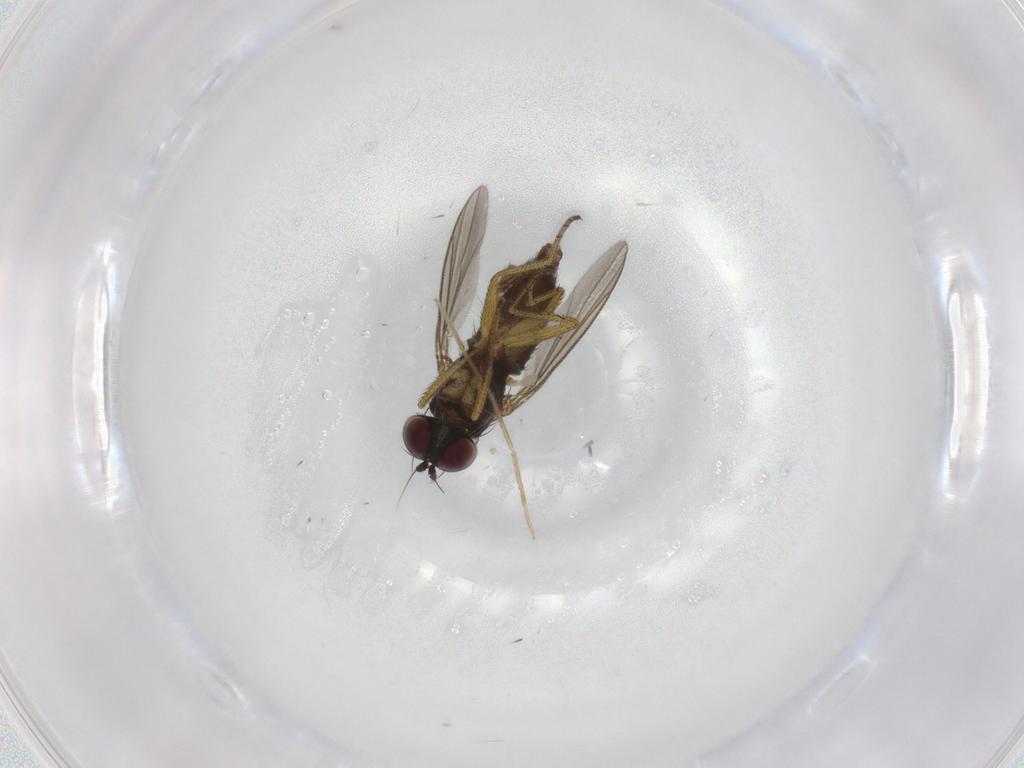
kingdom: Animalia
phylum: Arthropoda
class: Insecta
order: Diptera
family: Chironomidae
